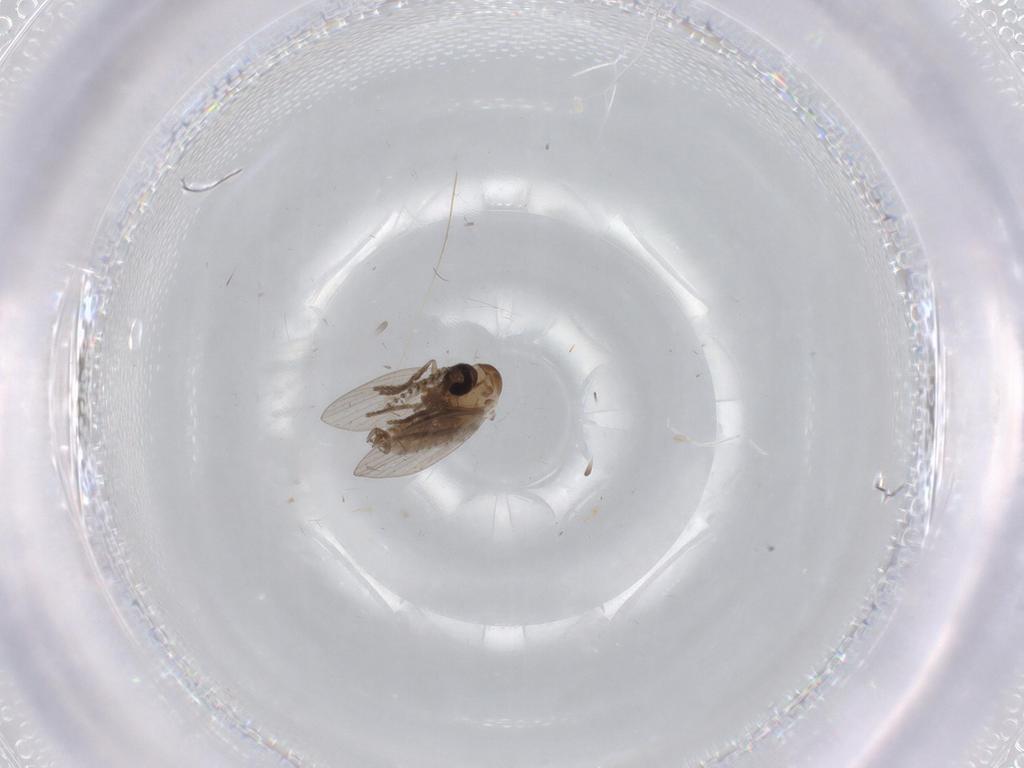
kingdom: Animalia
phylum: Arthropoda
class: Insecta
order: Diptera
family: Psychodidae
